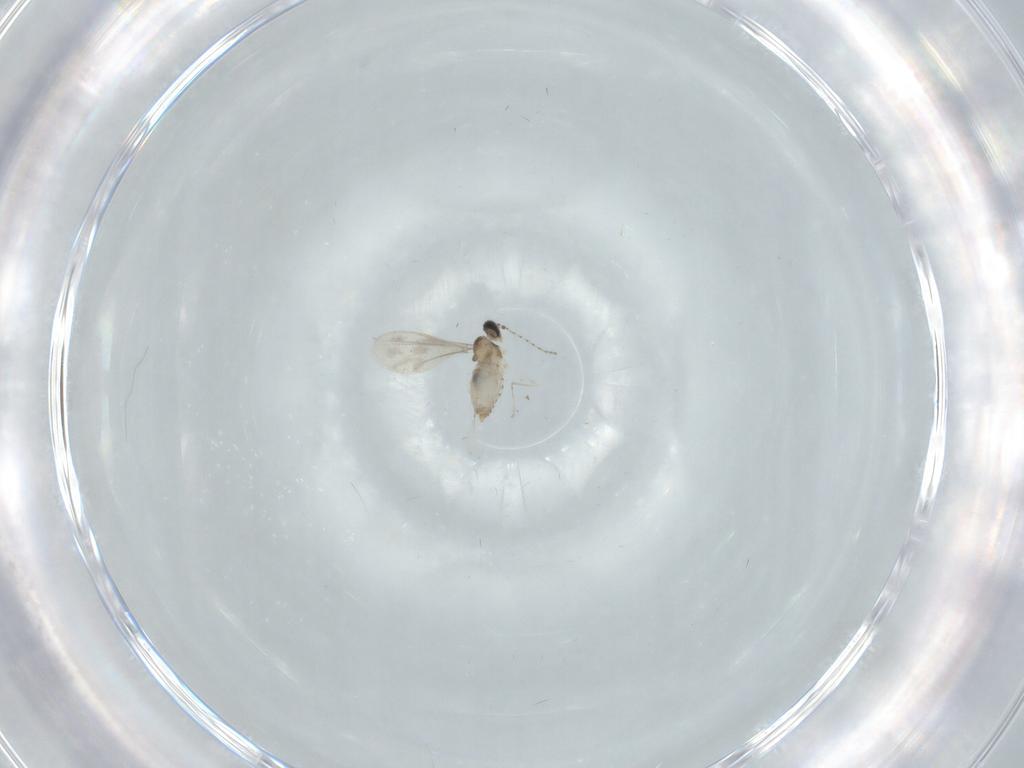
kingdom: Animalia
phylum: Arthropoda
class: Insecta
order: Diptera
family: Cecidomyiidae
